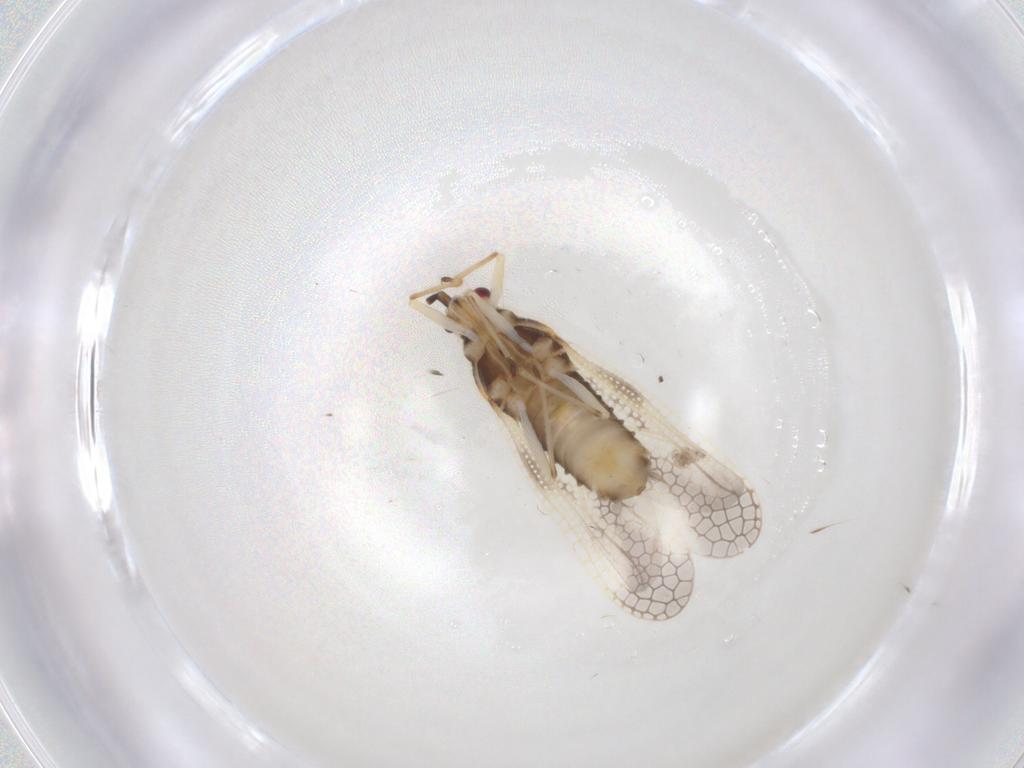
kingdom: Animalia
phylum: Arthropoda
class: Insecta
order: Hemiptera
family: Tingidae
